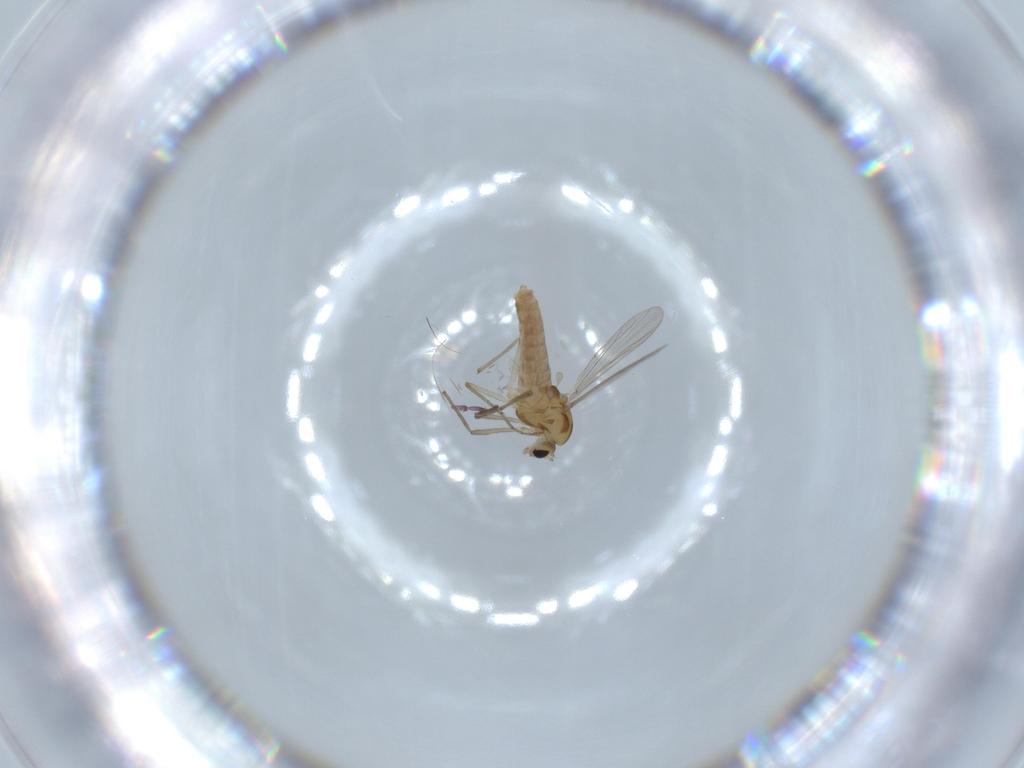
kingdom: Animalia
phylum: Arthropoda
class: Insecta
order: Diptera
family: Chironomidae
